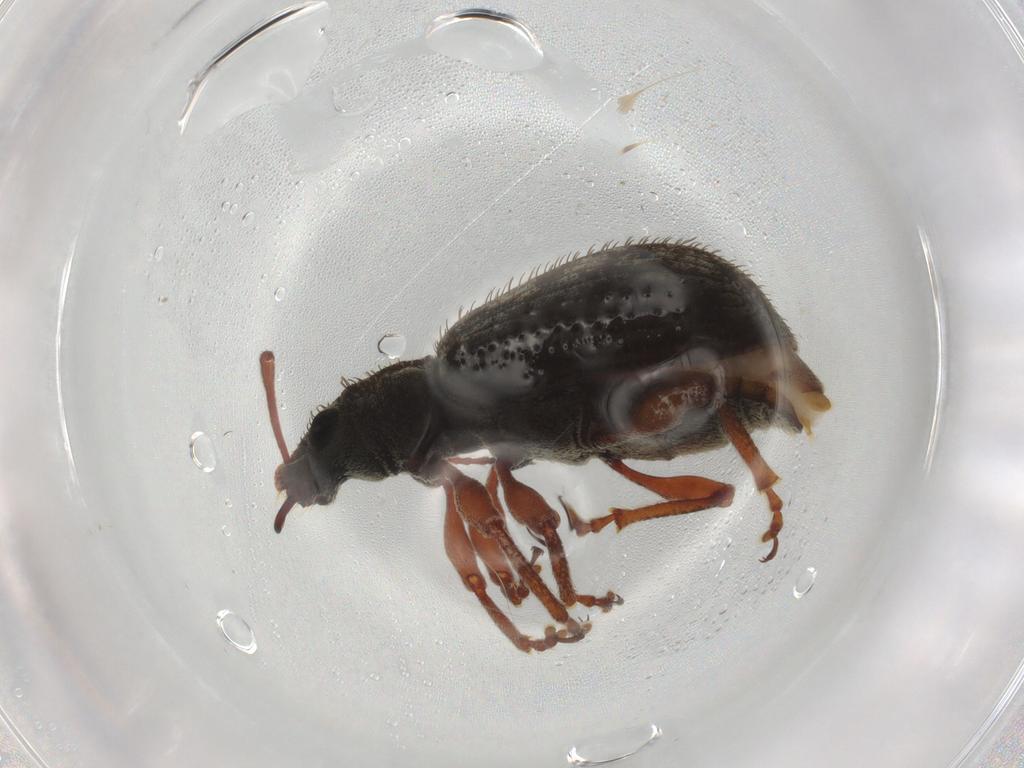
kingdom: Animalia
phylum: Arthropoda
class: Insecta
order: Coleoptera
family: Curculionidae
